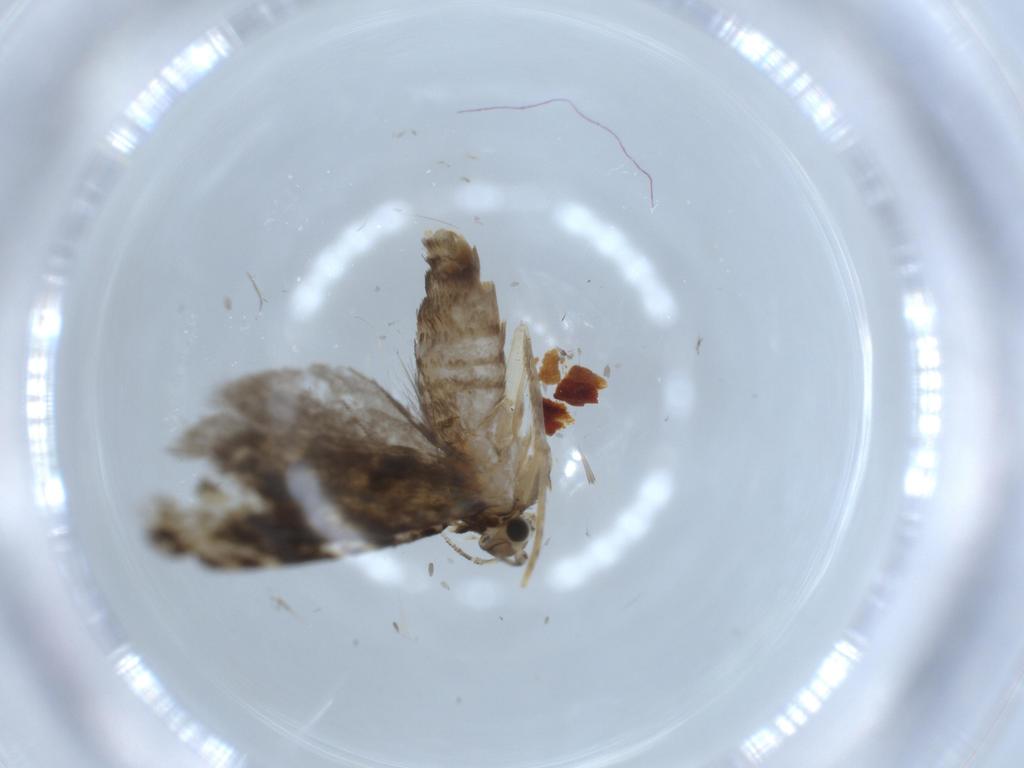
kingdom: Animalia
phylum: Arthropoda
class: Insecta
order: Lepidoptera
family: Tineidae
